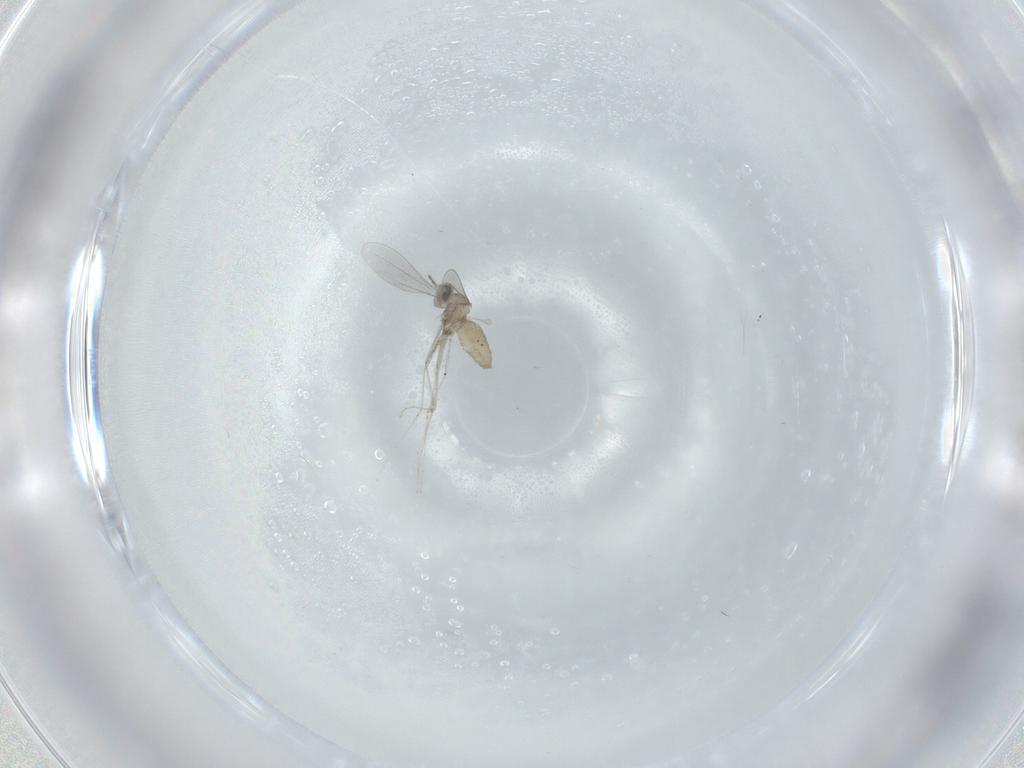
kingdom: Animalia
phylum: Arthropoda
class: Insecta
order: Diptera
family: Cecidomyiidae
